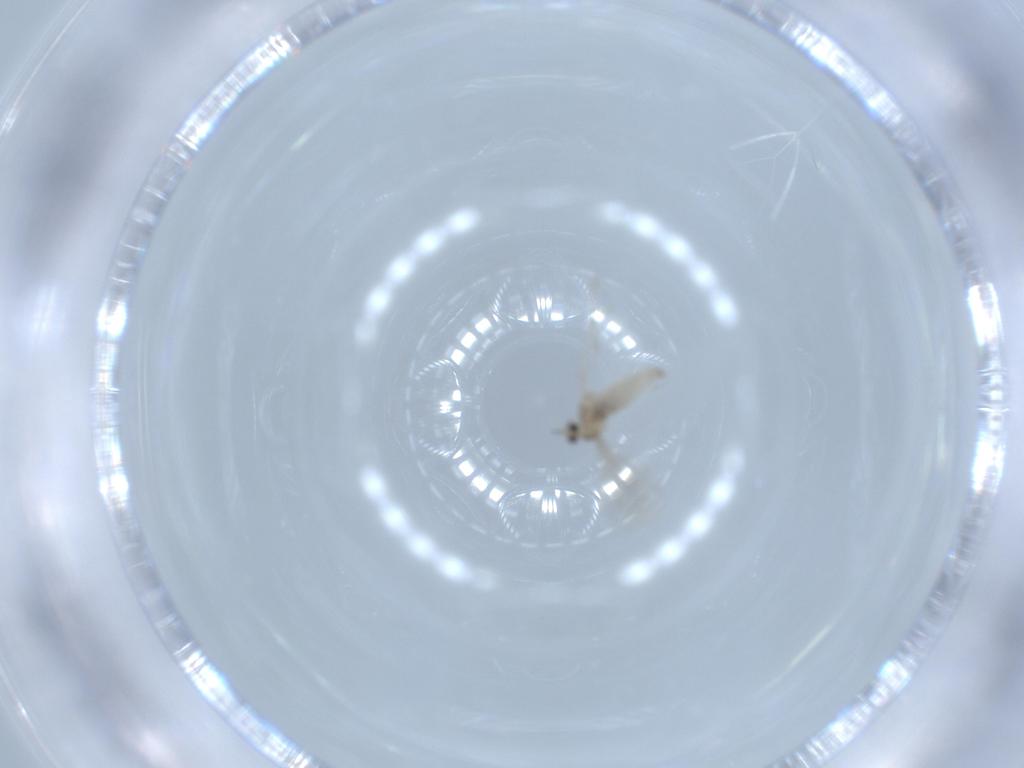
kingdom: Animalia
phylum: Arthropoda
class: Insecta
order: Diptera
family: Cecidomyiidae
